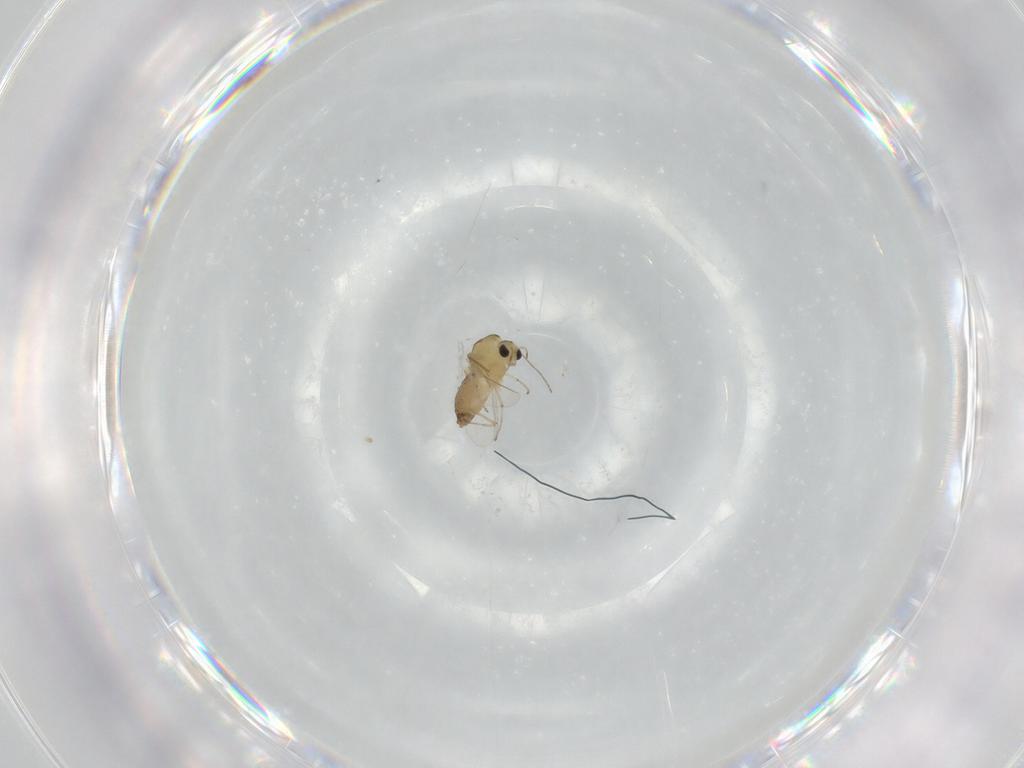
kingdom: Animalia
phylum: Arthropoda
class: Insecta
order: Diptera
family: Chironomidae
